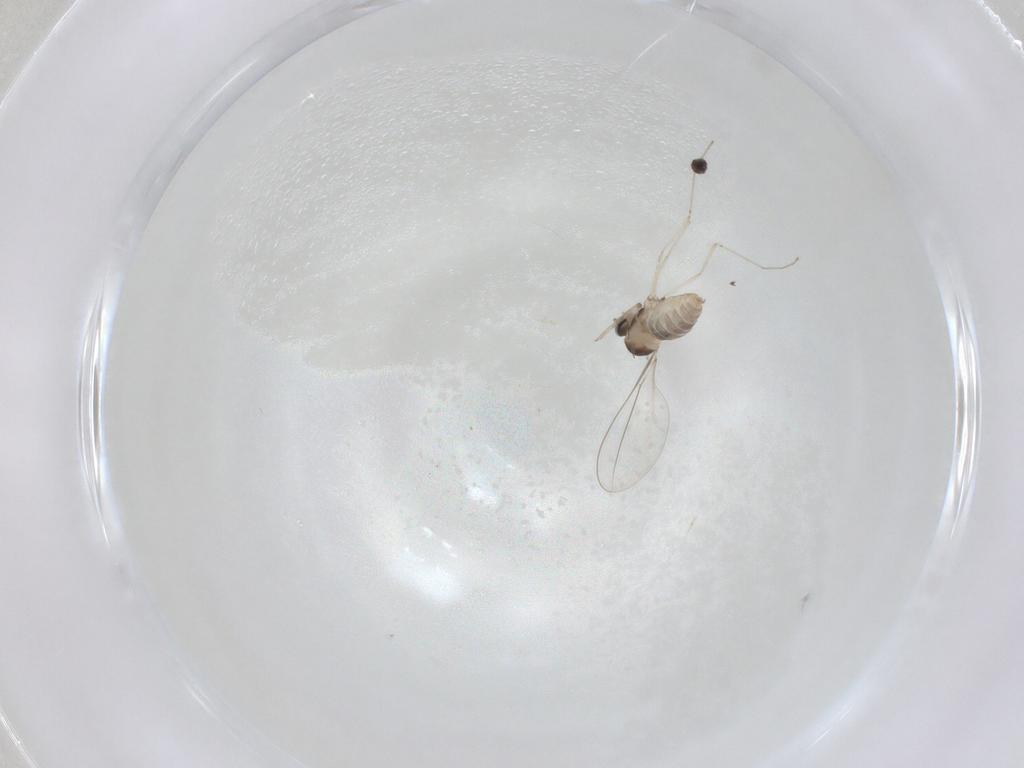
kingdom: Animalia
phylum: Arthropoda
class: Insecta
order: Diptera
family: Cecidomyiidae
